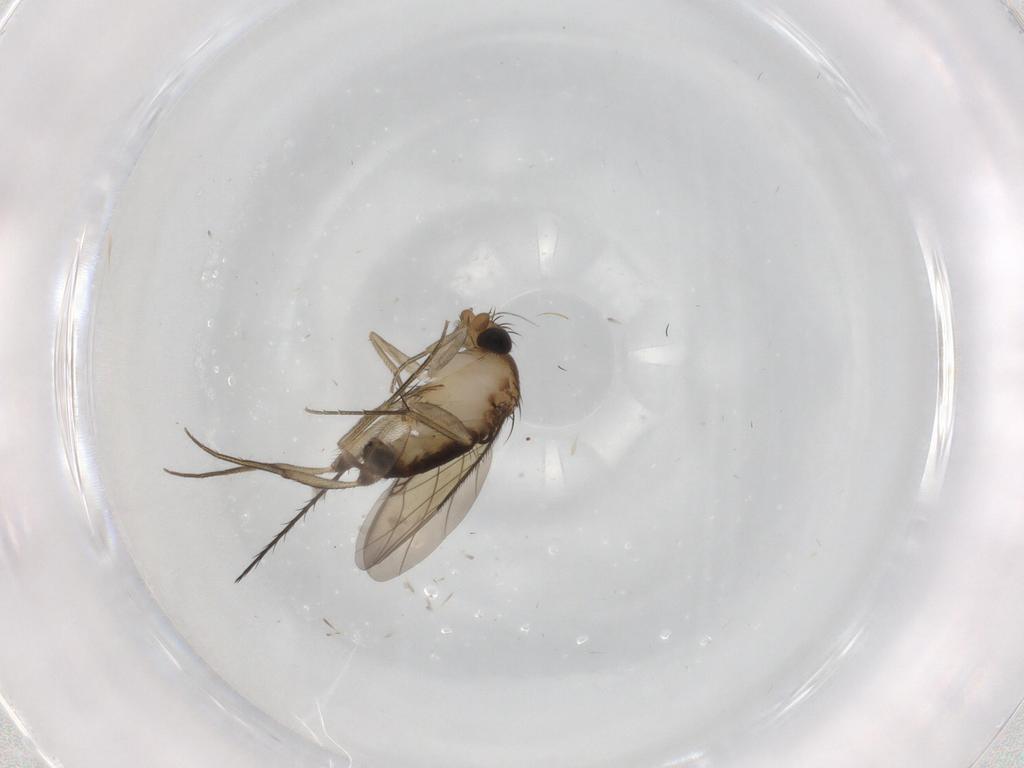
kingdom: Animalia
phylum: Arthropoda
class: Insecta
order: Diptera
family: Phoridae
